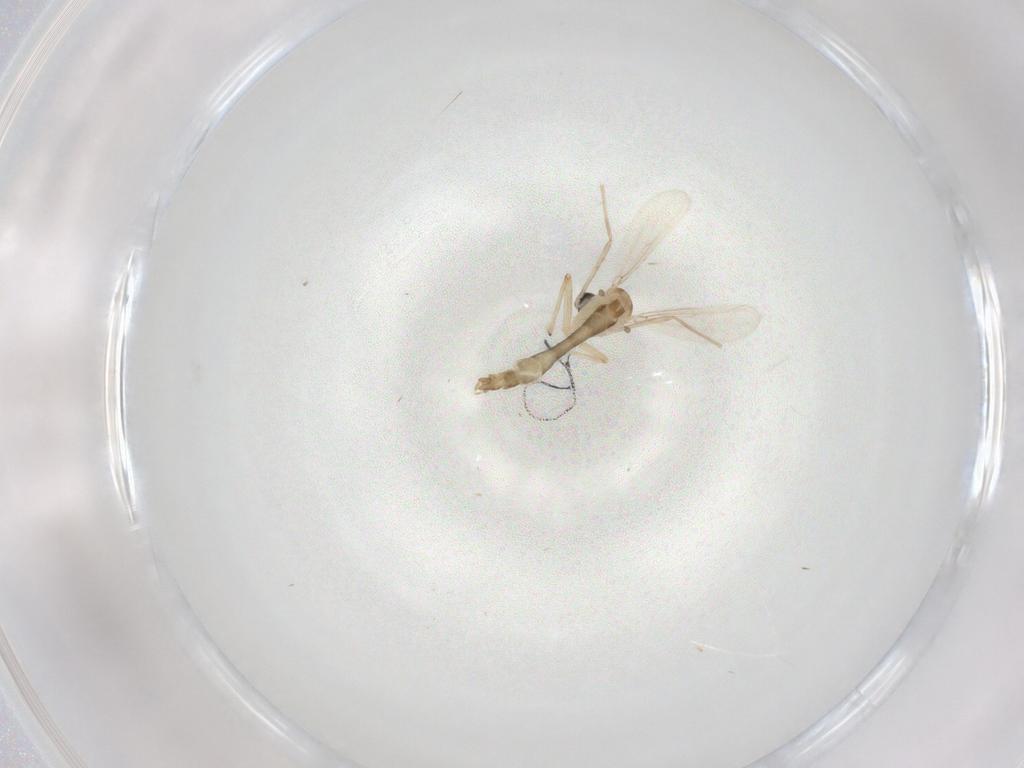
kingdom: Animalia
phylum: Arthropoda
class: Insecta
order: Diptera
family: Chironomidae
